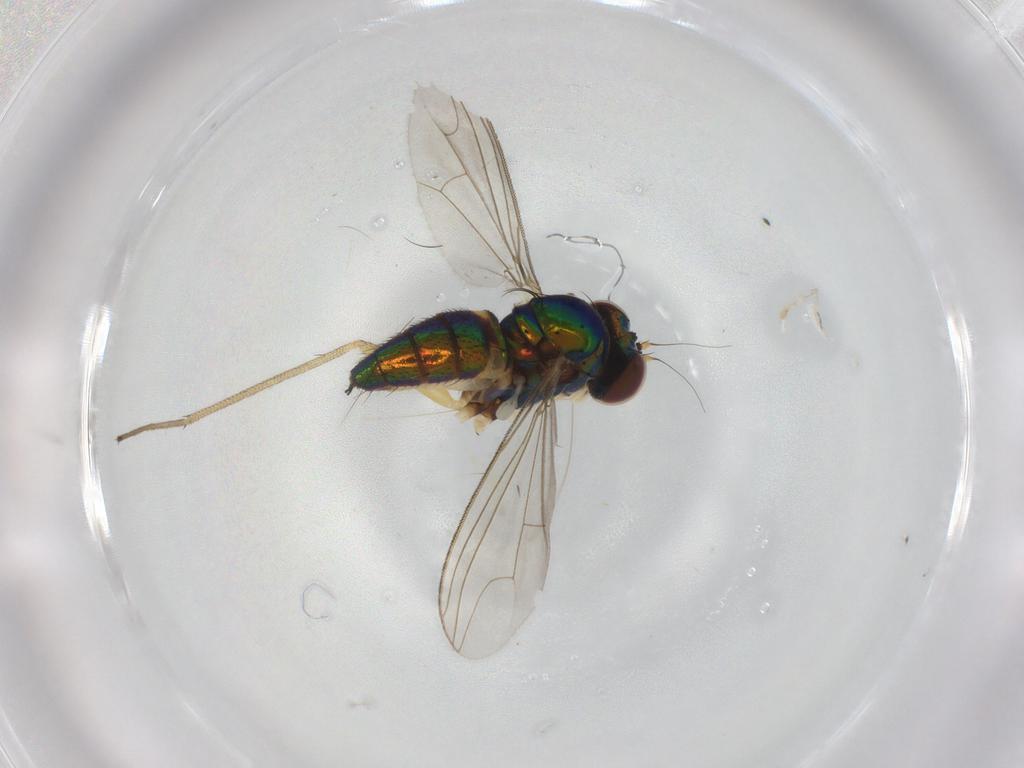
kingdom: Animalia
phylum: Arthropoda
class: Insecta
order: Diptera
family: Dolichopodidae
